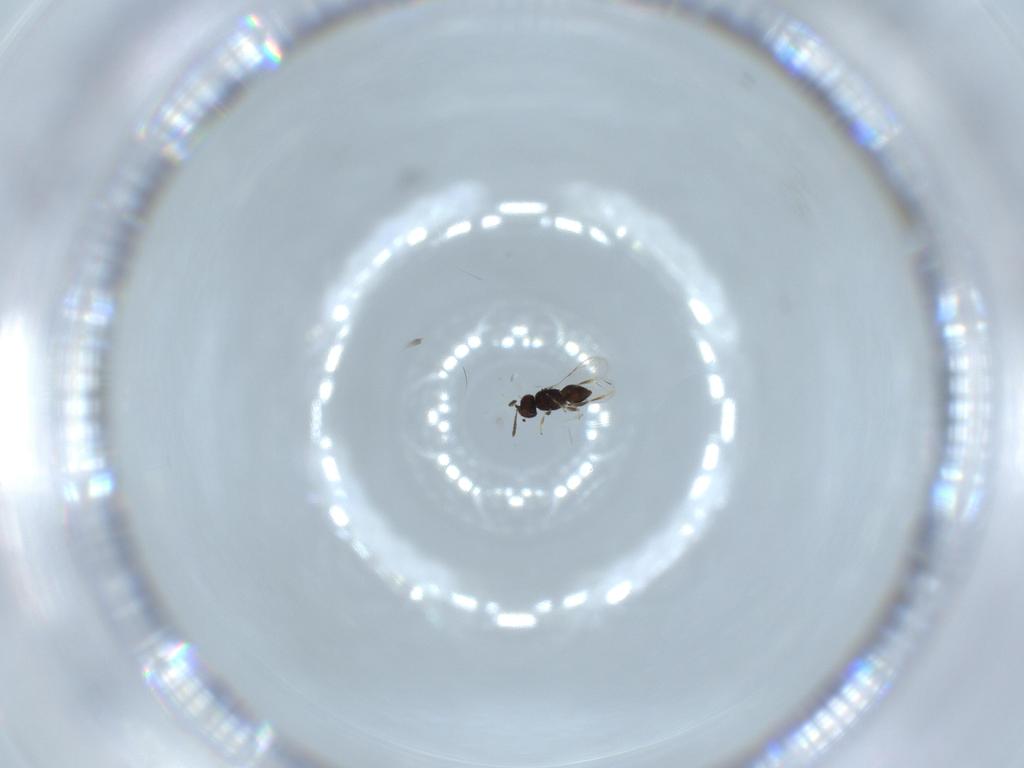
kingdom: Animalia
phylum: Arthropoda
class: Insecta
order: Hymenoptera
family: Ceraphronidae
